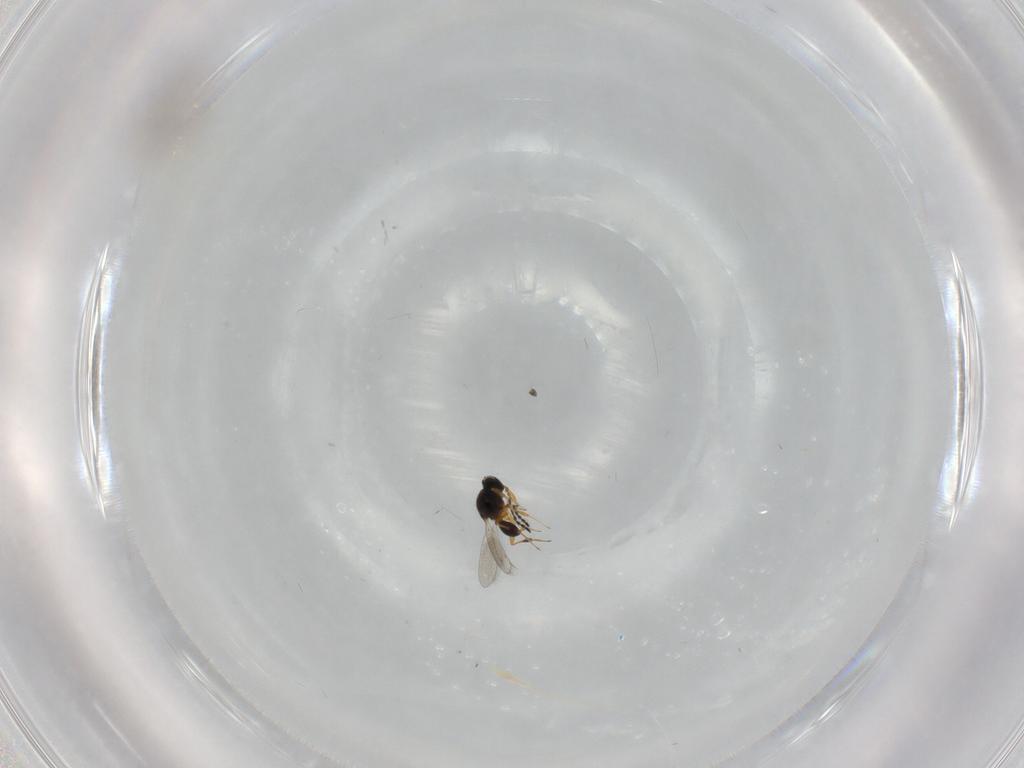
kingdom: Animalia
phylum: Arthropoda
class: Insecta
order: Hymenoptera
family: Platygastridae
